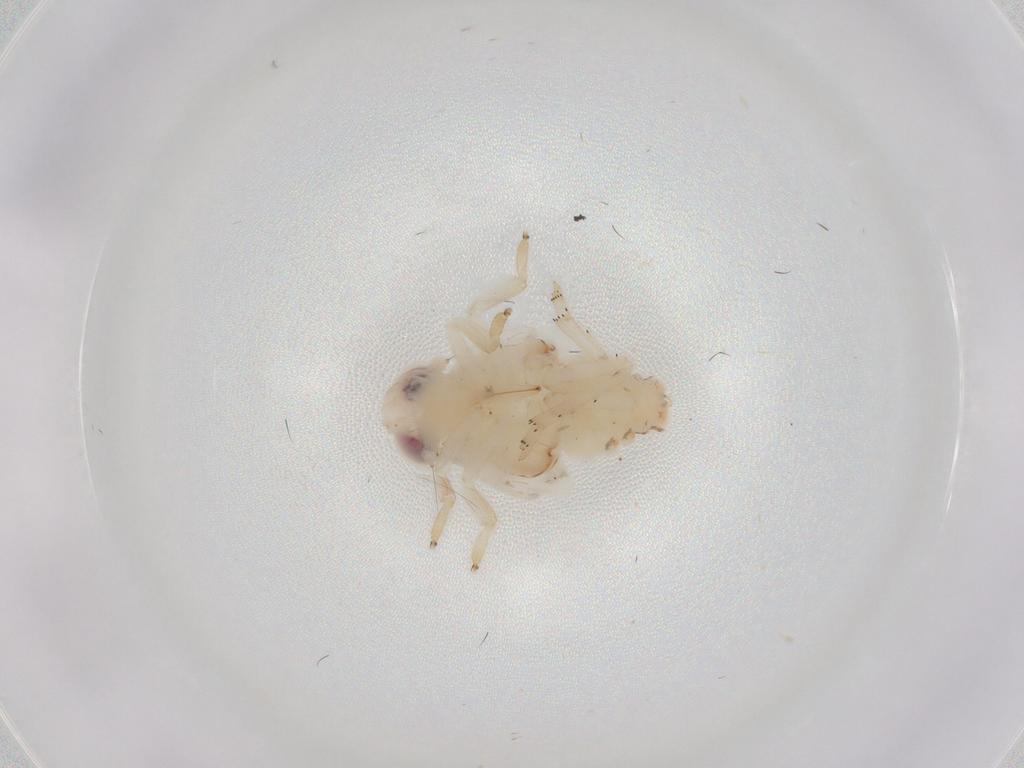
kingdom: Animalia
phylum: Arthropoda
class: Insecta
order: Hemiptera
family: Nogodinidae
